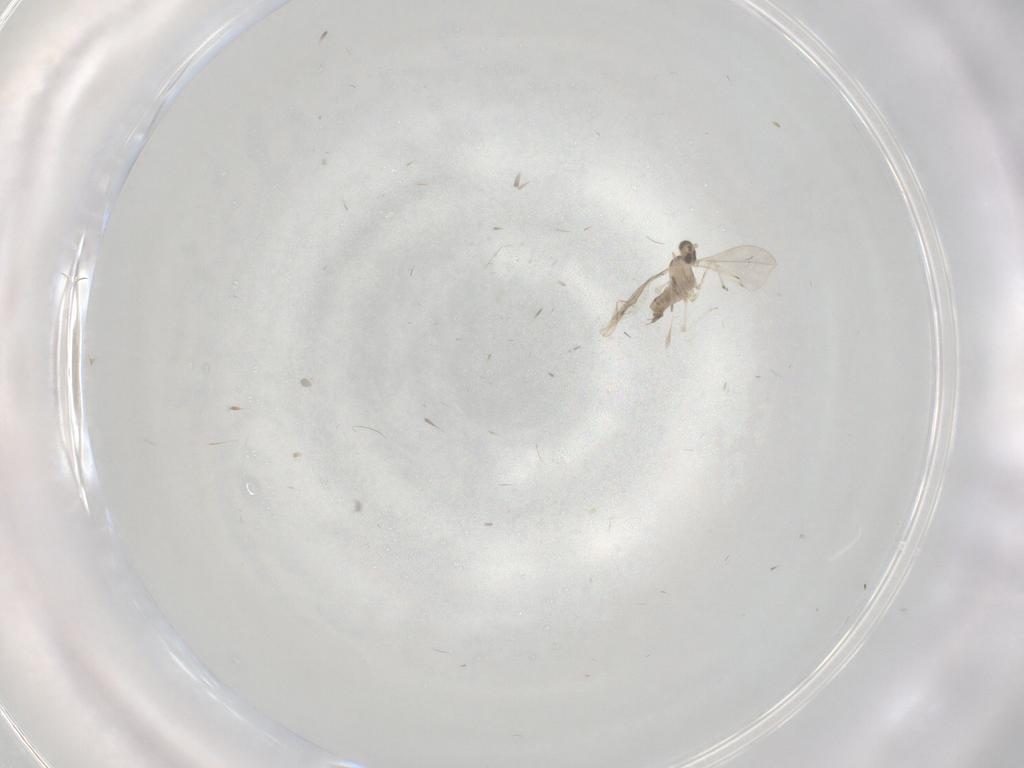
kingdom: Animalia
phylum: Arthropoda
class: Insecta
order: Diptera
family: Cecidomyiidae
